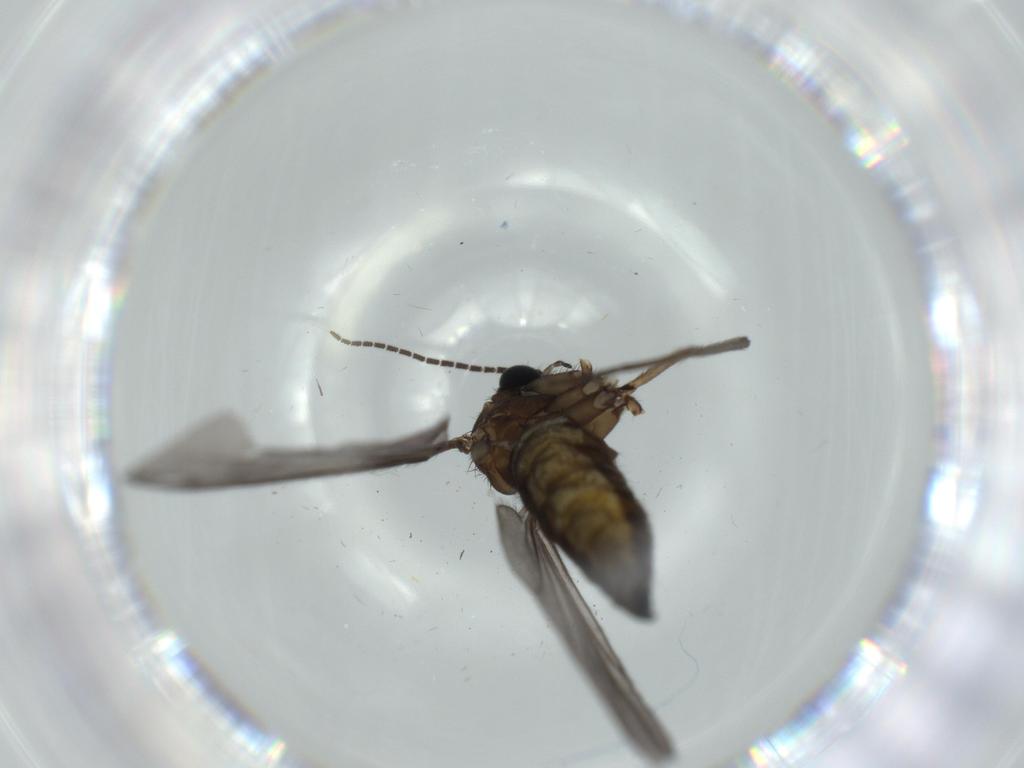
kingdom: Animalia
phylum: Arthropoda
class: Insecta
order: Diptera
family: Sciaridae
